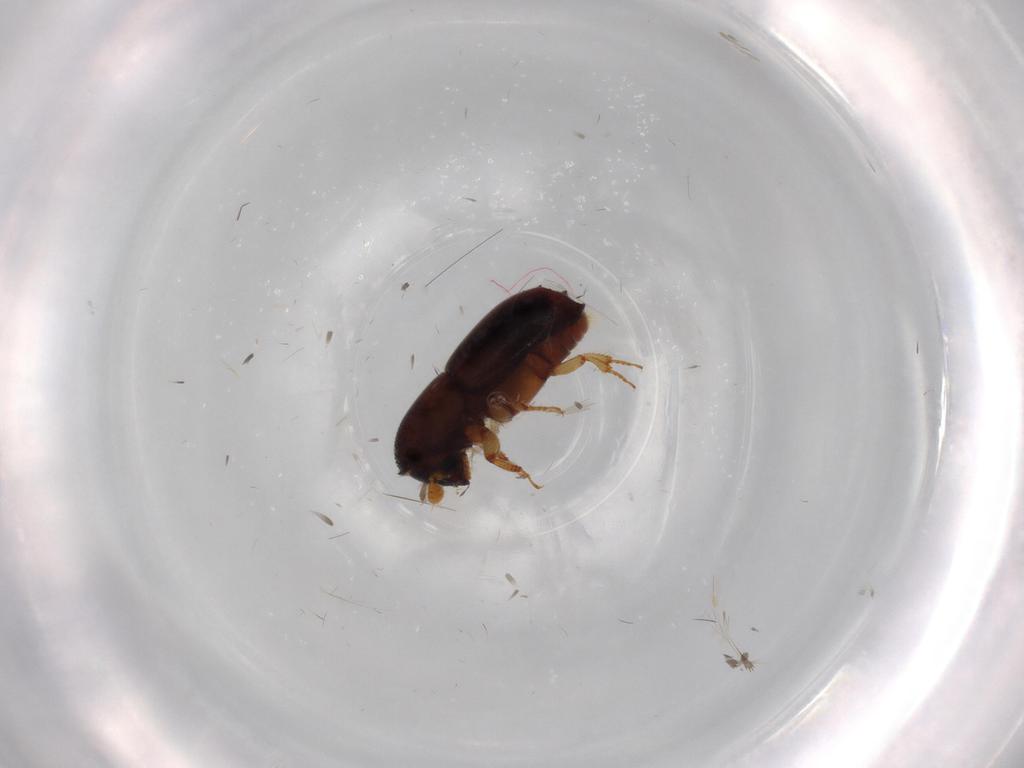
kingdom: Animalia
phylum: Arthropoda
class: Insecta
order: Coleoptera
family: Curculionidae
